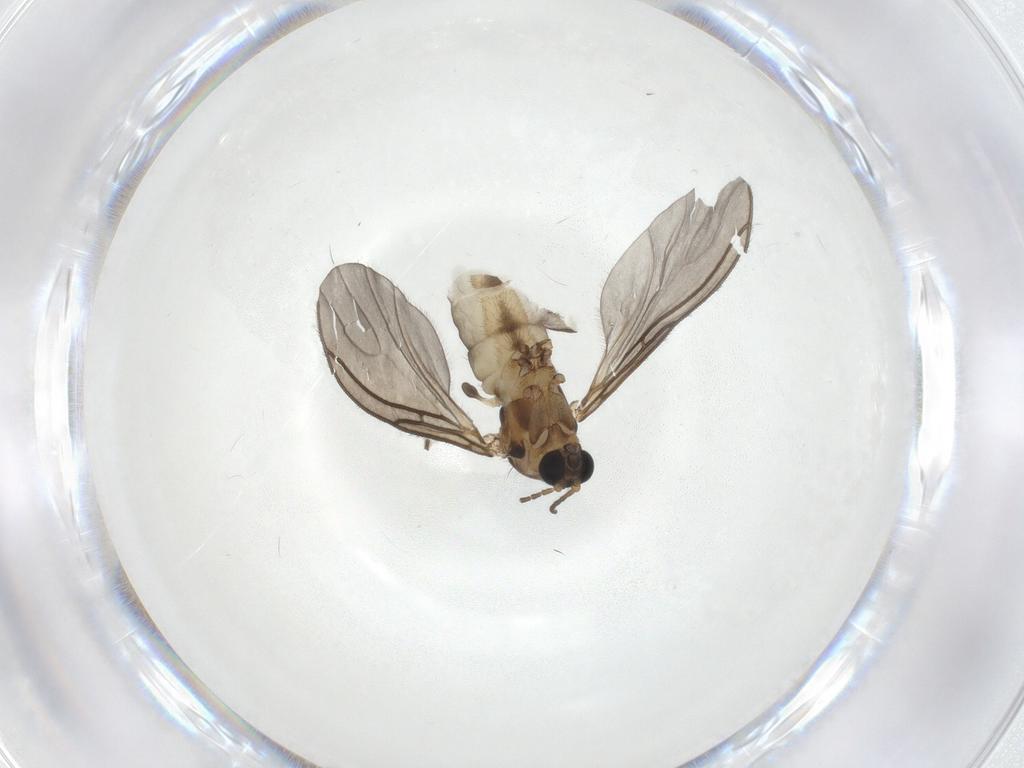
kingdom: Animalia
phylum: Arthropoda
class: Insecta
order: Diptera
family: Sciaridae
